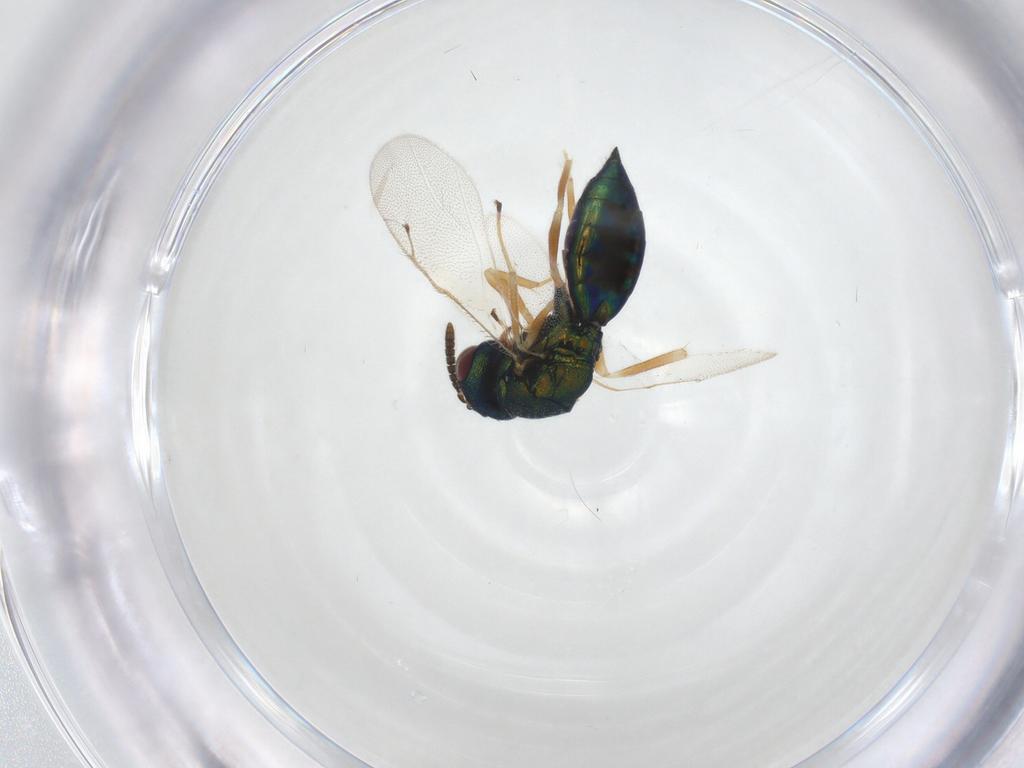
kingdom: Animalia
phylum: Arthropoda
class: Insecta
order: Hymenoptera
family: Pteromalidae
